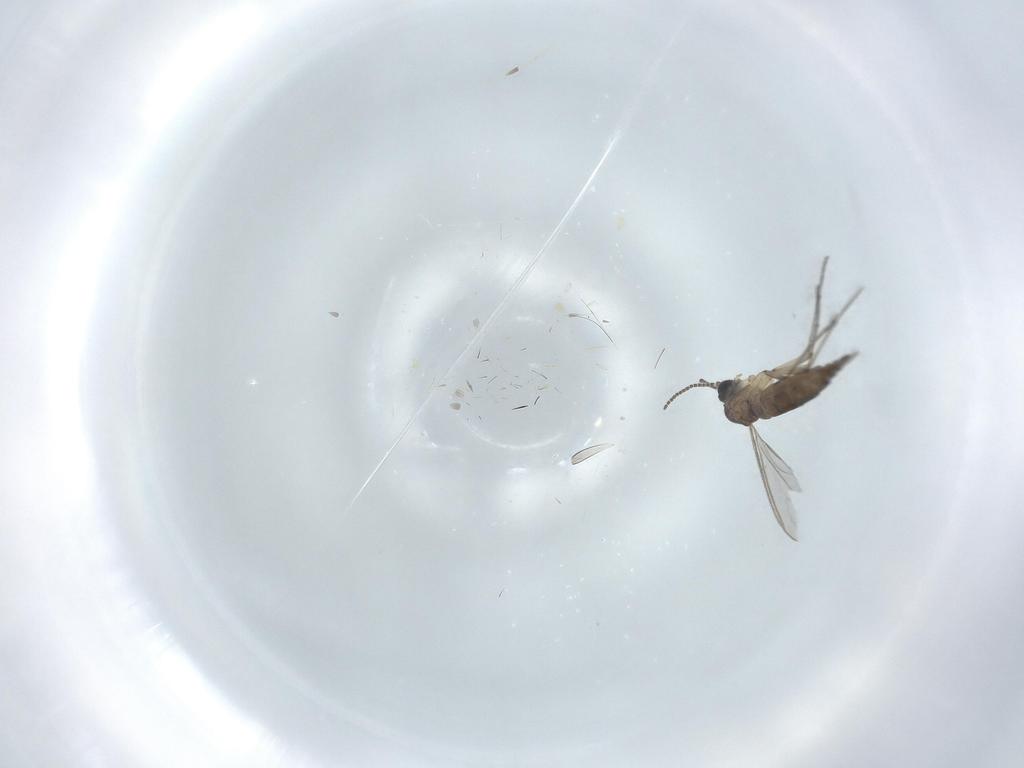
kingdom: Animalia
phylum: Arthropoda
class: Insecta
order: Diptera
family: Sciaridae
